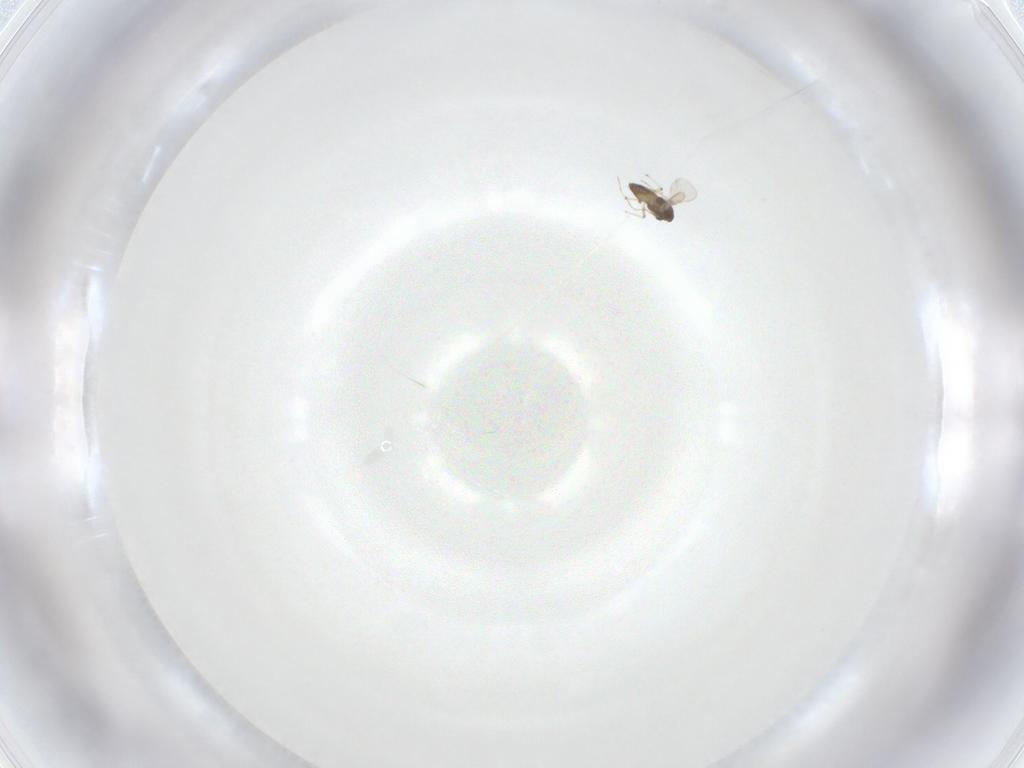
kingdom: Animalia
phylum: Arthropoda
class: Insecta
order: Diptera
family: Chironomidae
